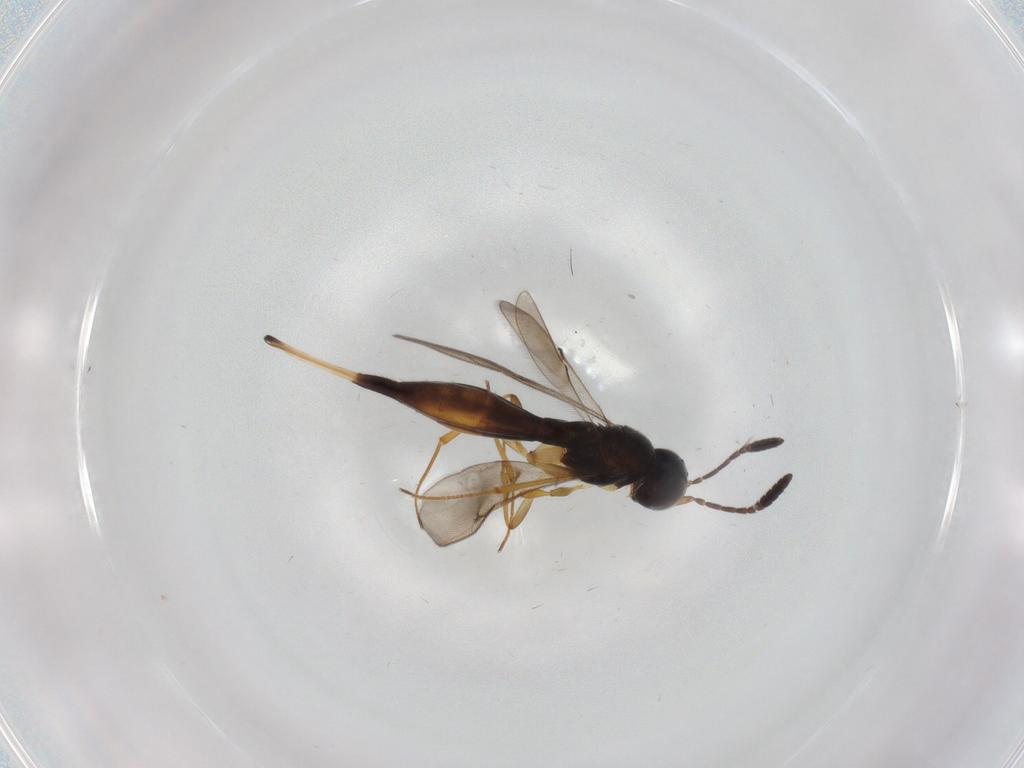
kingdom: Animalia
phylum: Arthropoda
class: Insecta
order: Hymenoptera
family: Scelionidae
